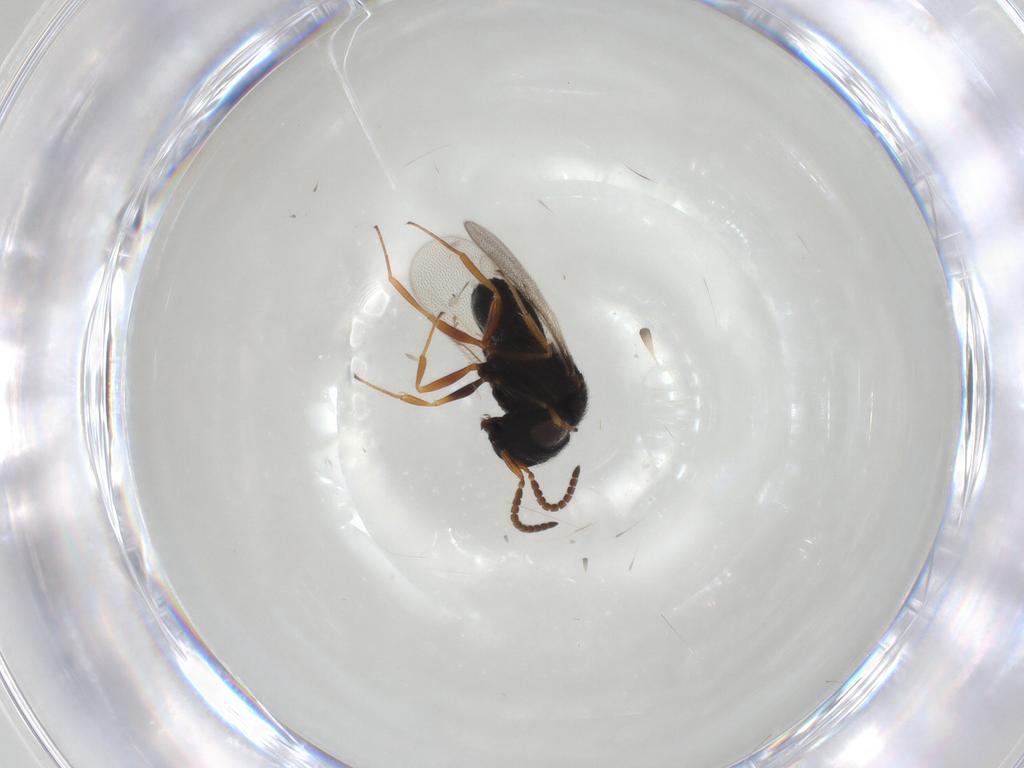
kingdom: Animalia
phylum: Arthropoda
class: Insecta
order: Hymenoptera
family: Scelionidae
